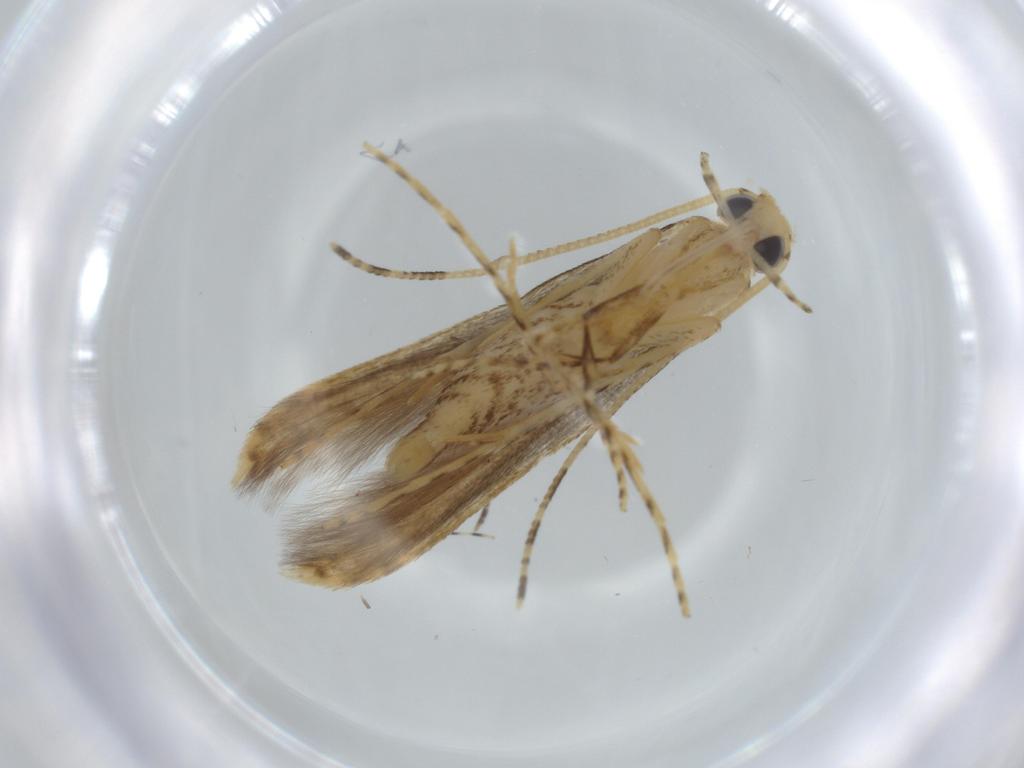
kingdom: Animalia
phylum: Arthropoda
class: Insecta
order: Lepidoptera
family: Batrachedridae
